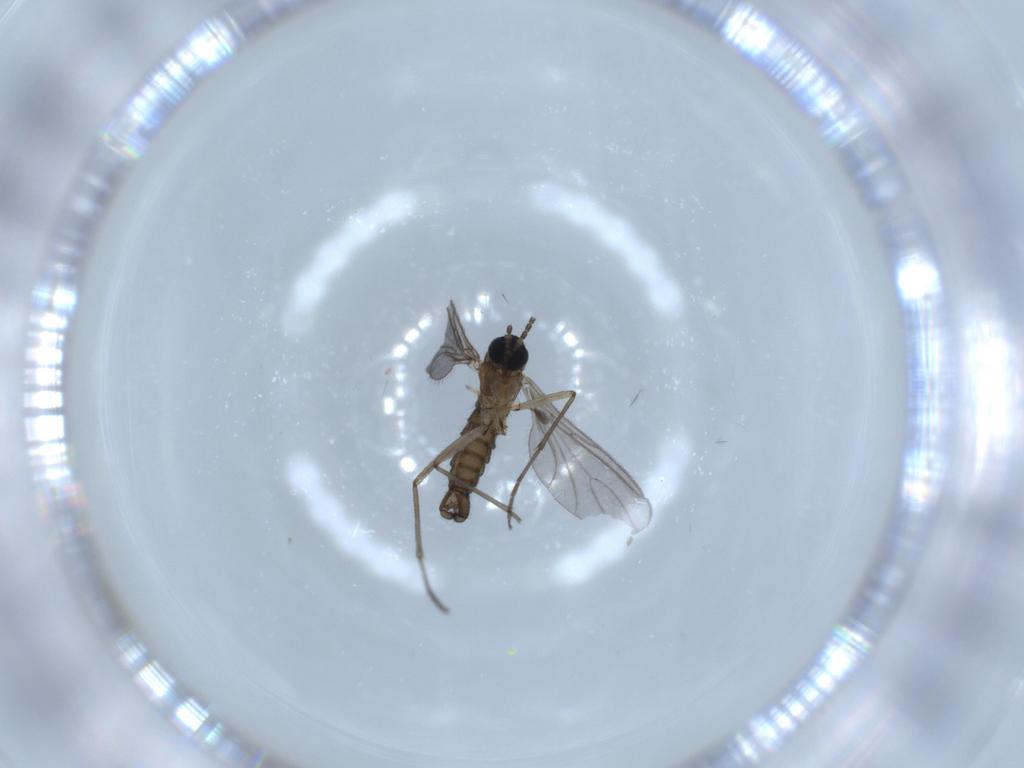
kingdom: Animalia
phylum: Arthropoda
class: Insecta
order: Diptera
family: Sciaridae
